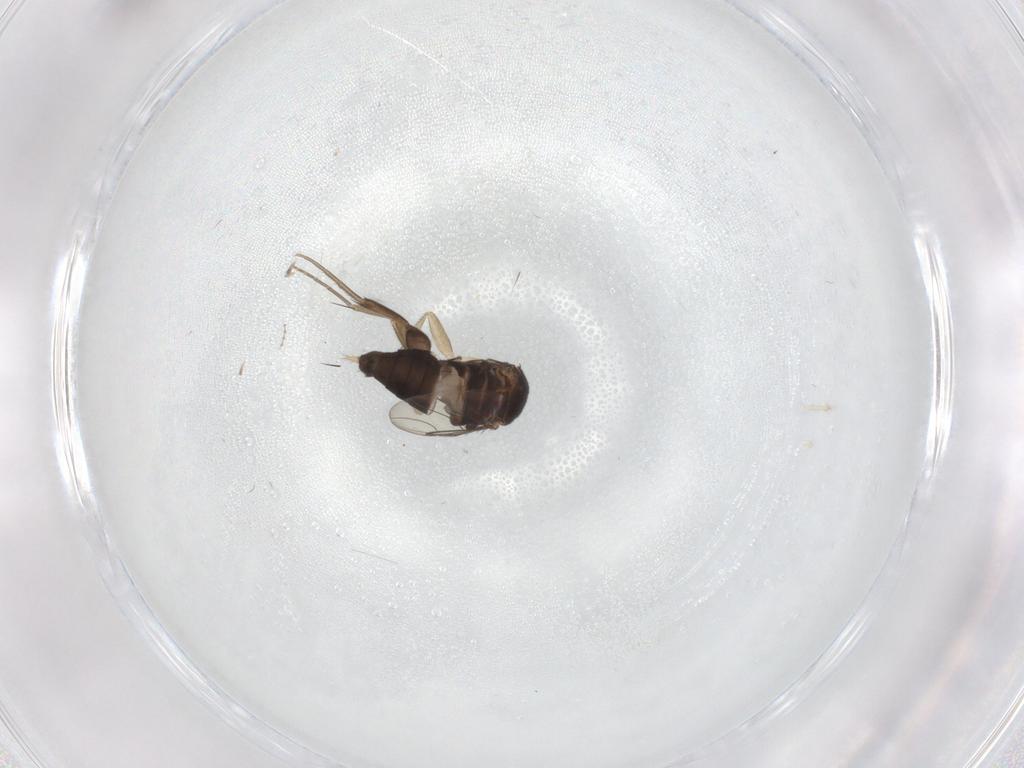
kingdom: Animalia
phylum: Arthropoda
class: Insecta
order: Diptera
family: Phoridae
